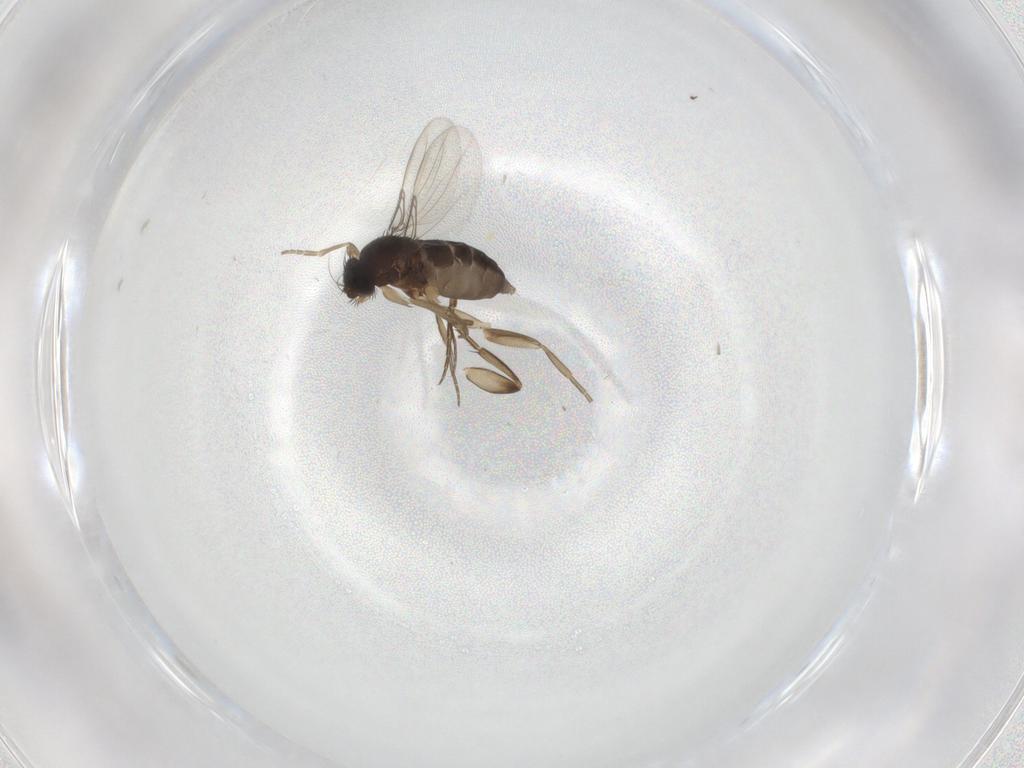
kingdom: Animalia
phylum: Arthropoda
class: Insecta
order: Diptera
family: Phoridae
